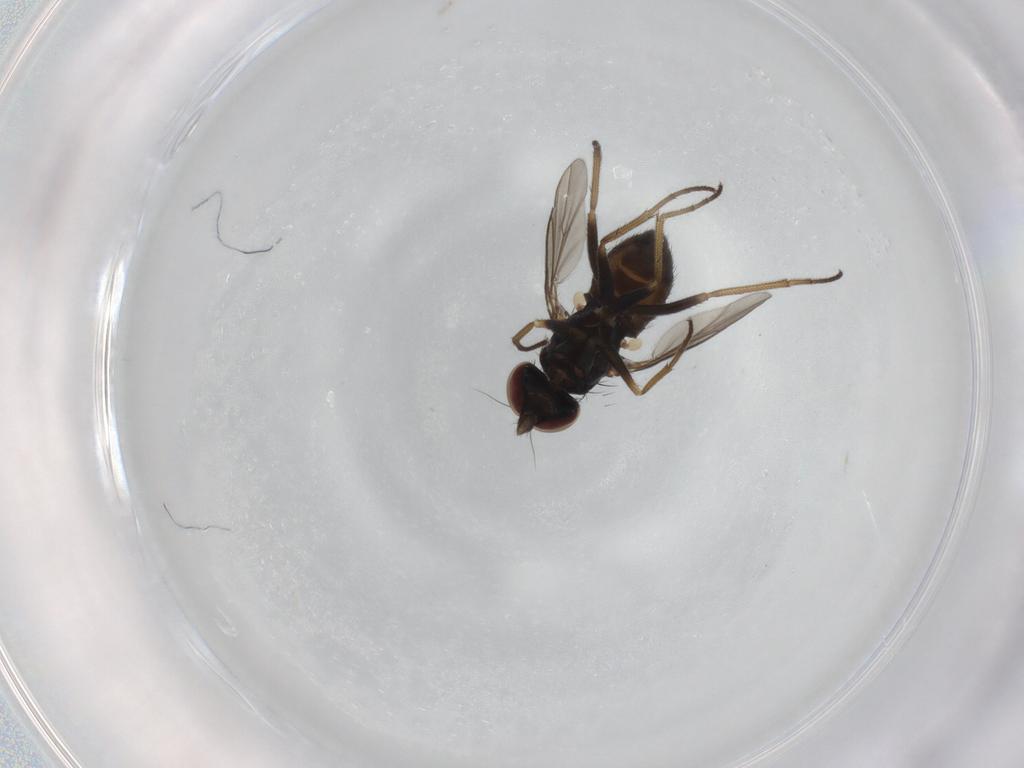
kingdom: Animalia
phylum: Arthropoda
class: Insecta
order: Diptera
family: Dolichopodidae
